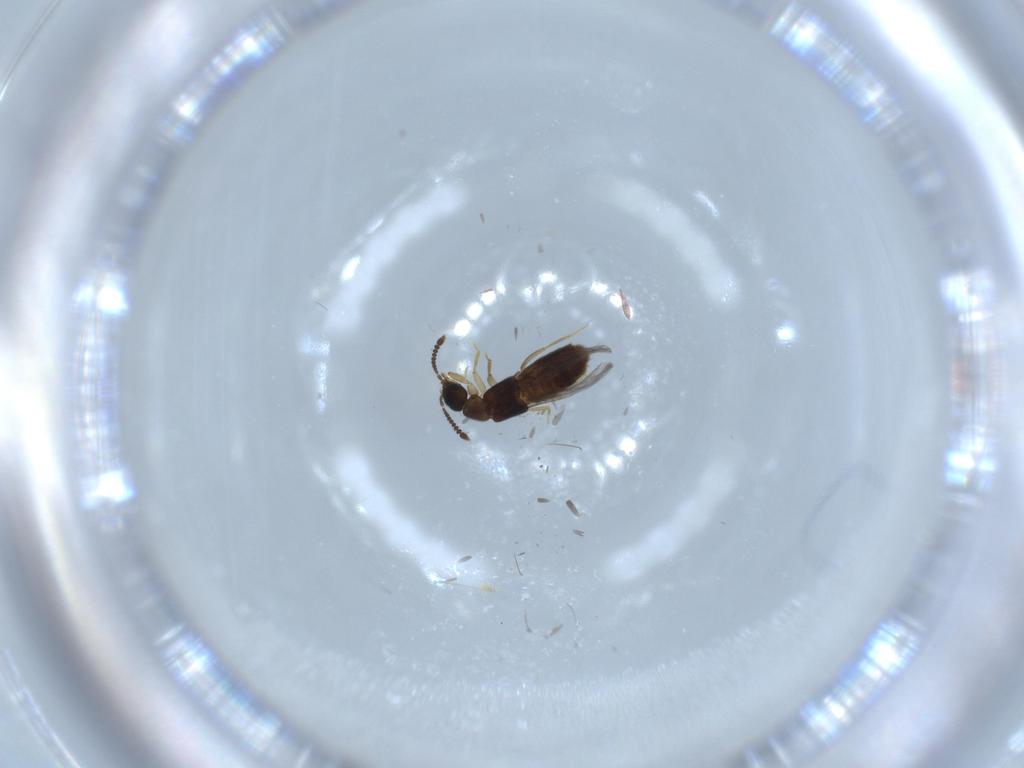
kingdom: Animalia
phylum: Arthropoda
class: Insecta
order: Coleoptera
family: Staphylinidae
